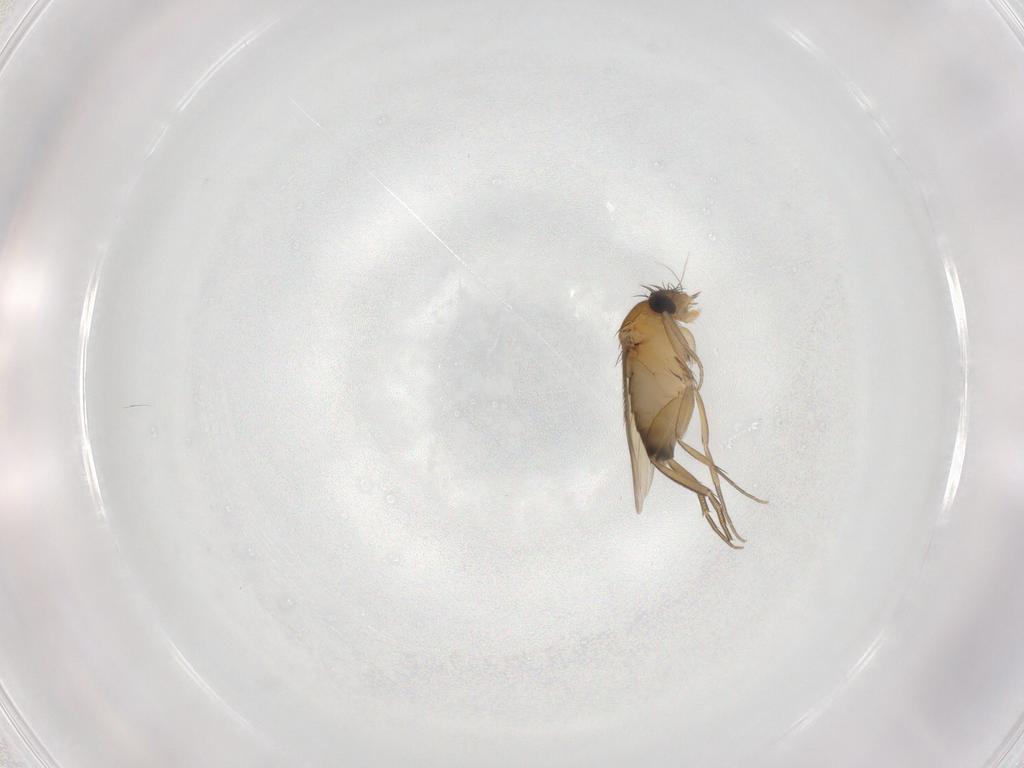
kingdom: Animalia
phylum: Arthropoda
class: Insecta
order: Diptera
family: Phoridae
